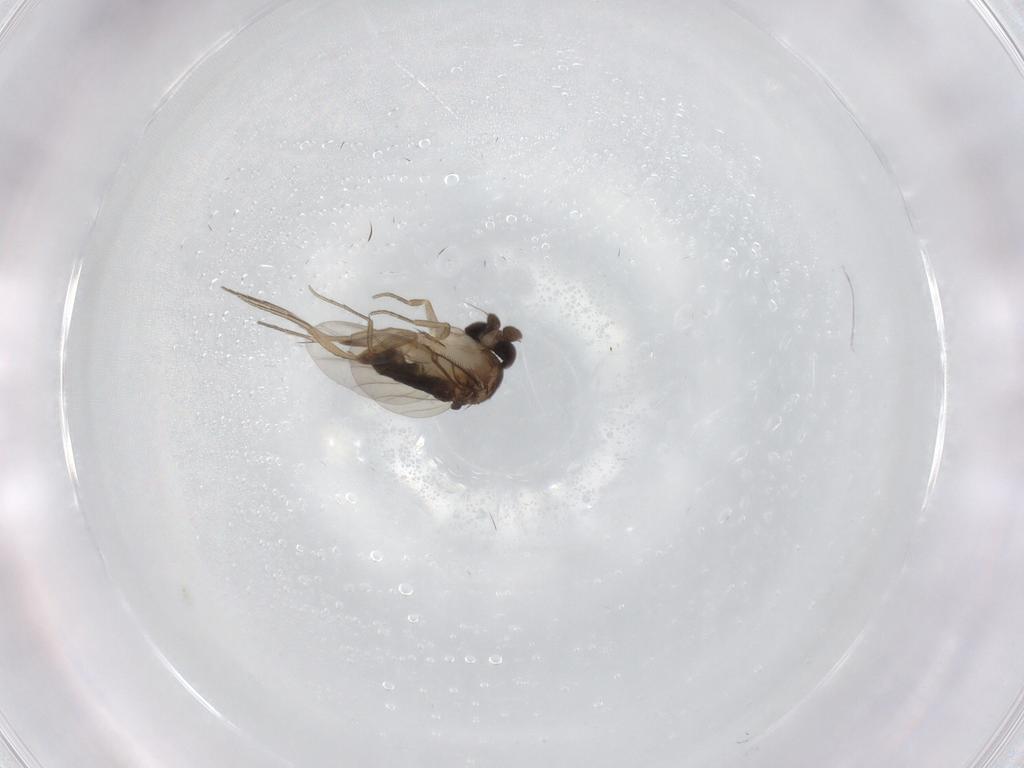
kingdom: Animalia
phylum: Arthropoda
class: Insecta
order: Diptera
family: Phoridae
